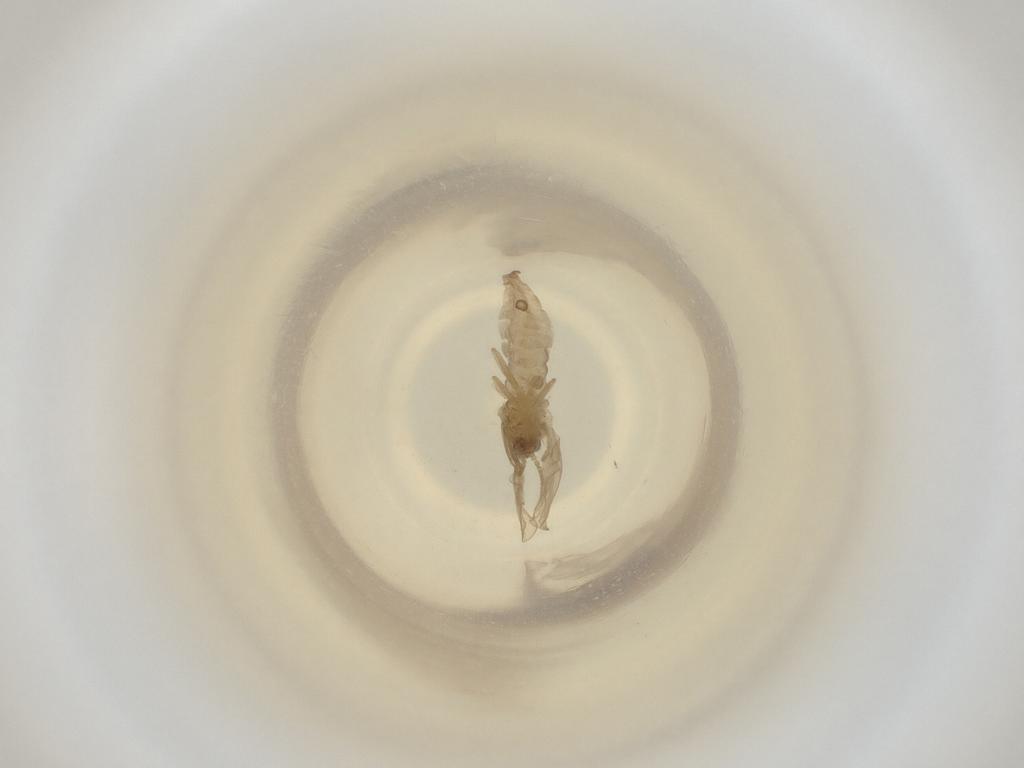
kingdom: Animalia
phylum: Arthropoda
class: Insecta
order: Diptera
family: Cecidomyiidae
